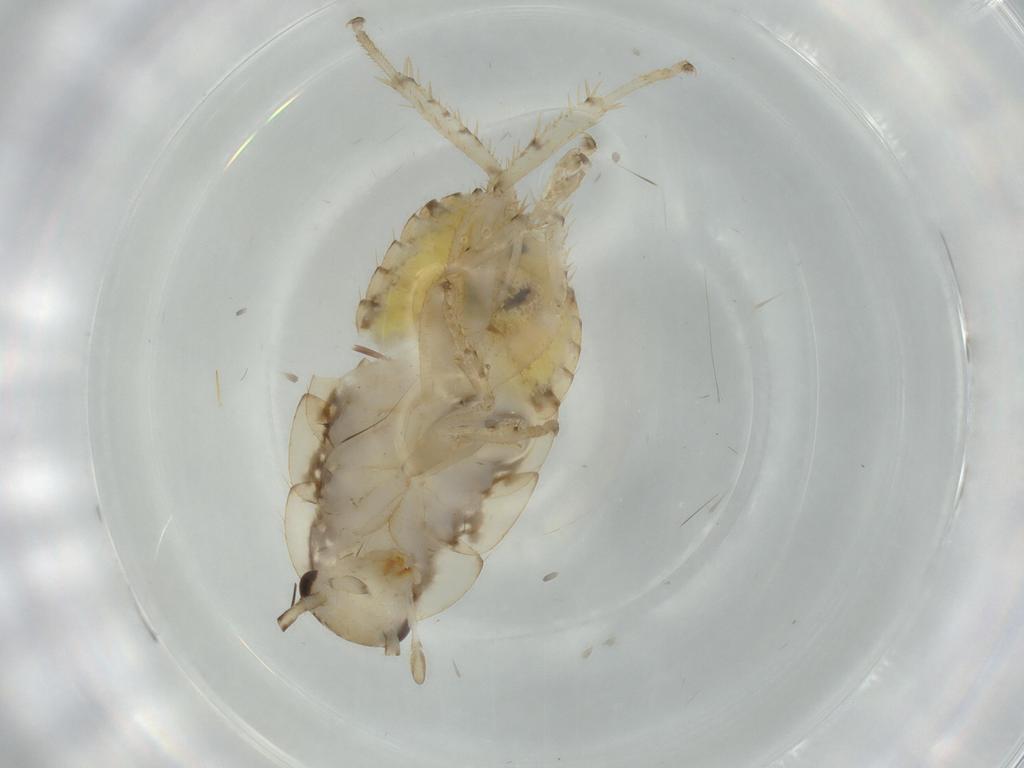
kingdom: Animalia
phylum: Arthropoda
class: Insecta
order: Blattodea
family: Ectobiidae
